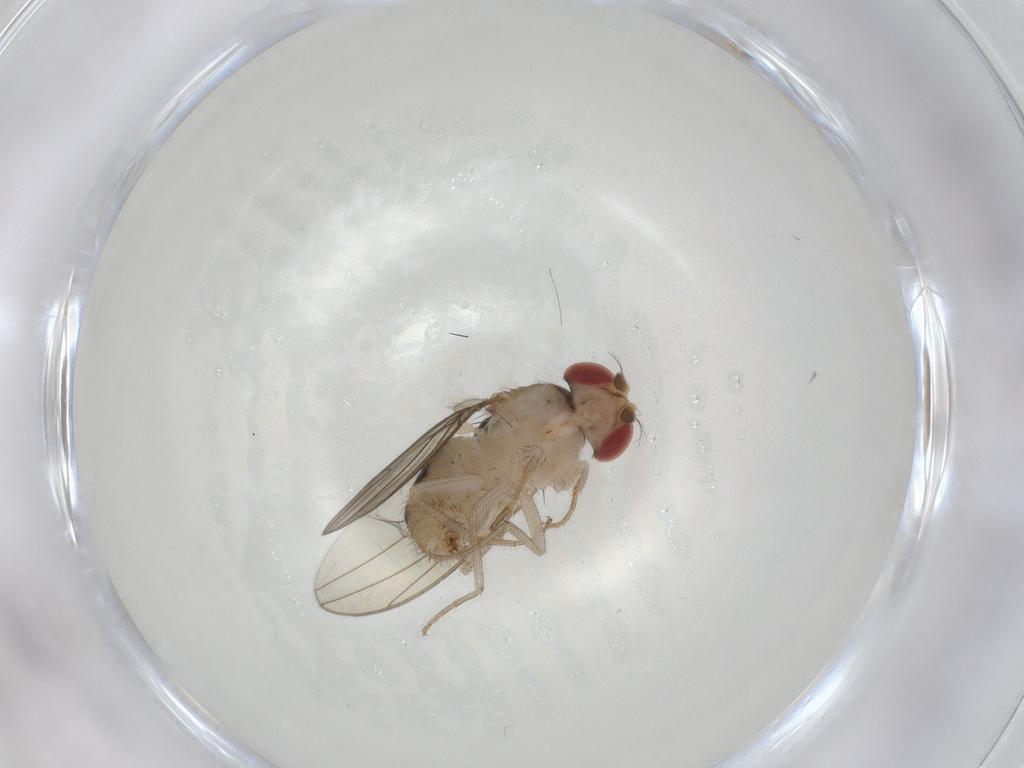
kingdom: Animalia
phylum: Arthropoda
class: Insecta
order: Diptera
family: Drosophilidae
